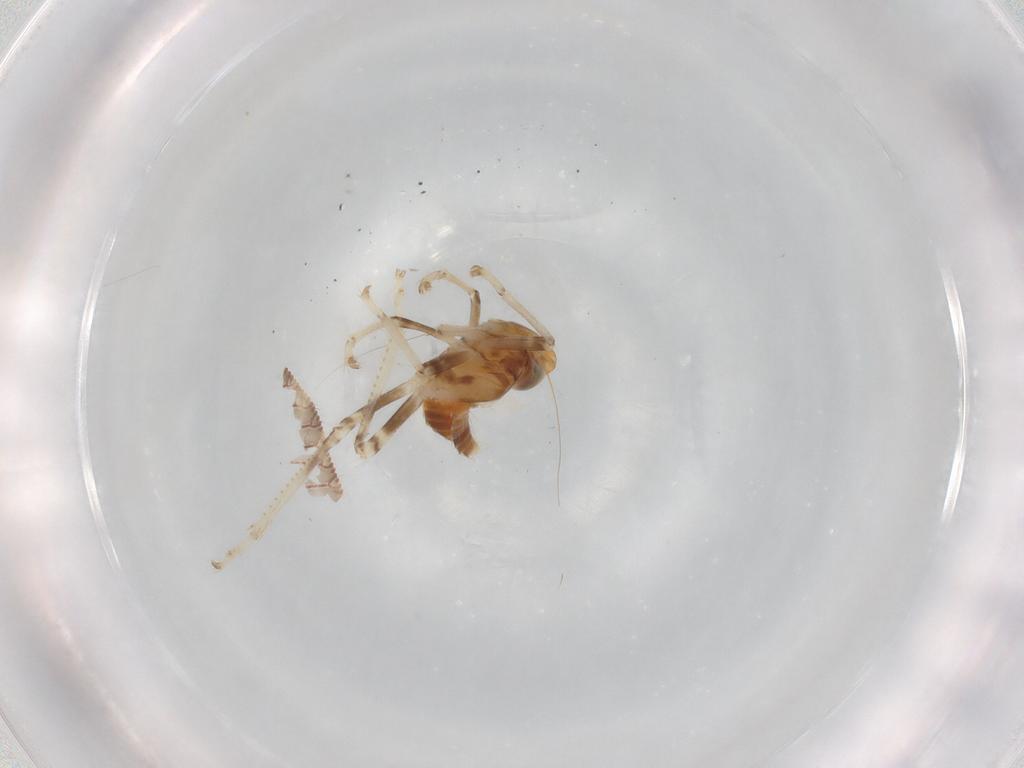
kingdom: Animalia
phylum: Arthropoda
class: Insecta
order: Hemiptera
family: Cicadellidae
